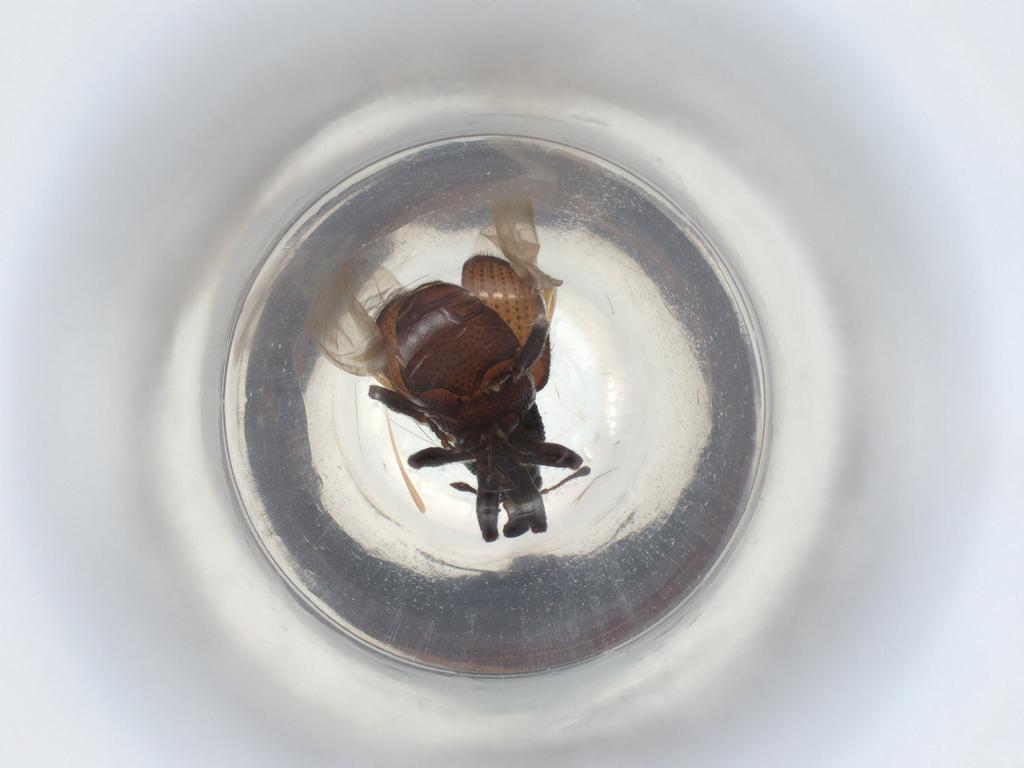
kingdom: Animalia
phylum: Arthropoda
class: Insecta
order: Coleoptera
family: Curculionidae
